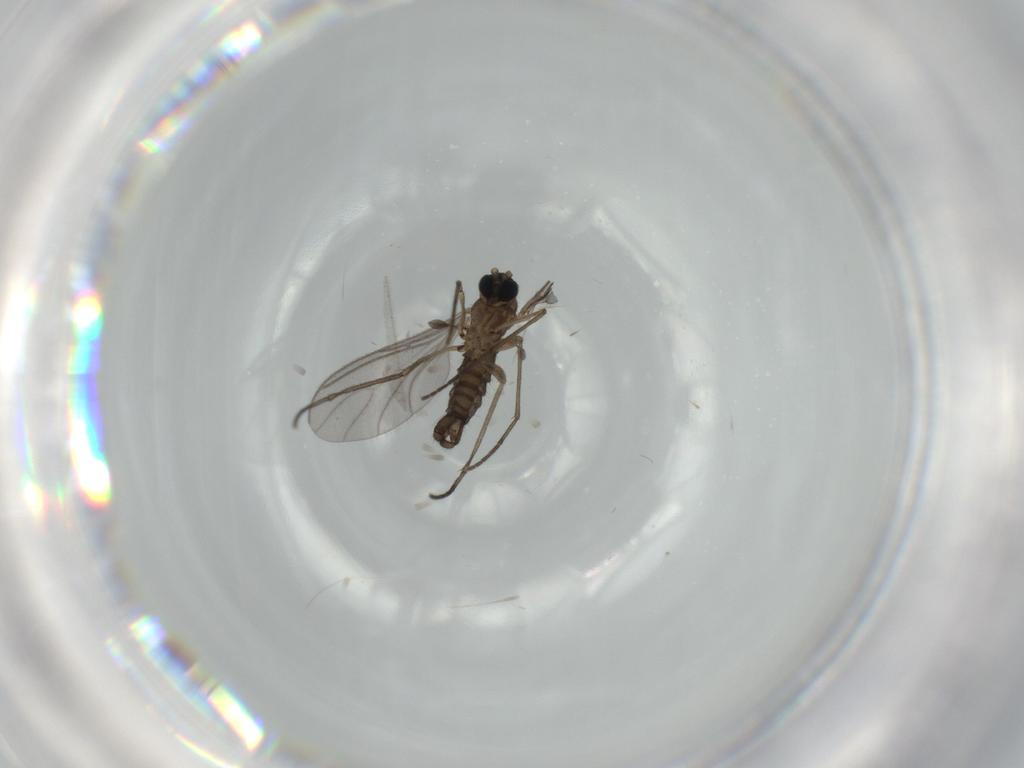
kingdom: Animalia
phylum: Arthropoda
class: Insecta
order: Diptera
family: Sciaridae
